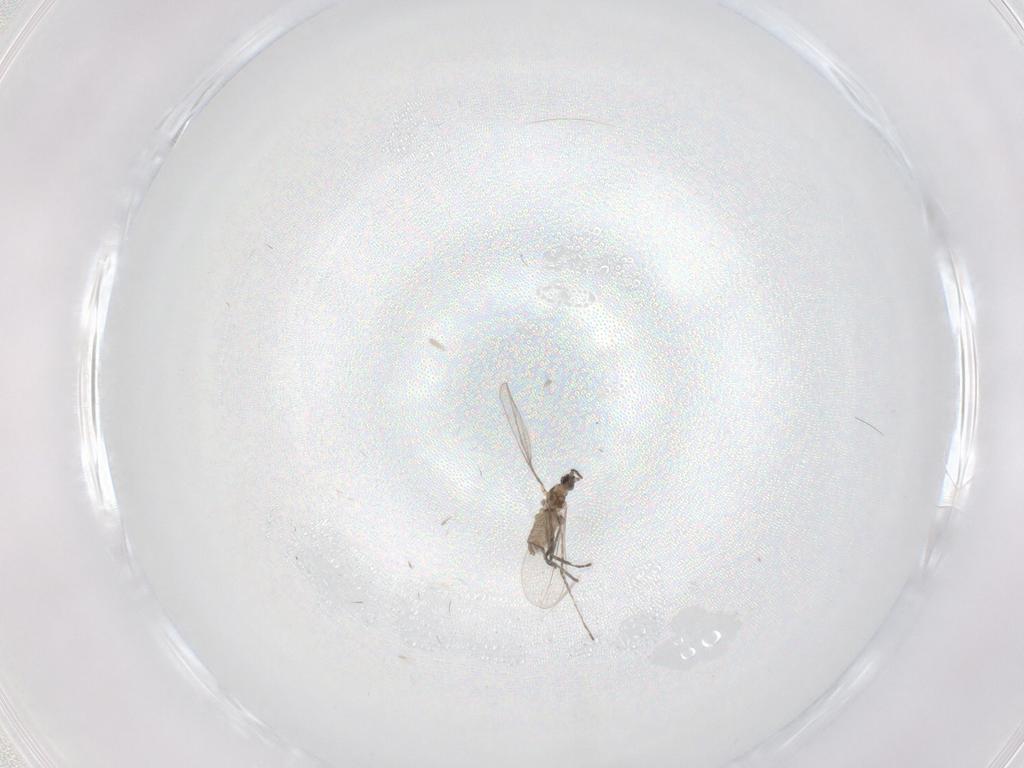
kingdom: Animalia
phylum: Arthropoda
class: Insecta
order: Diptera
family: Cecidomyiidae
